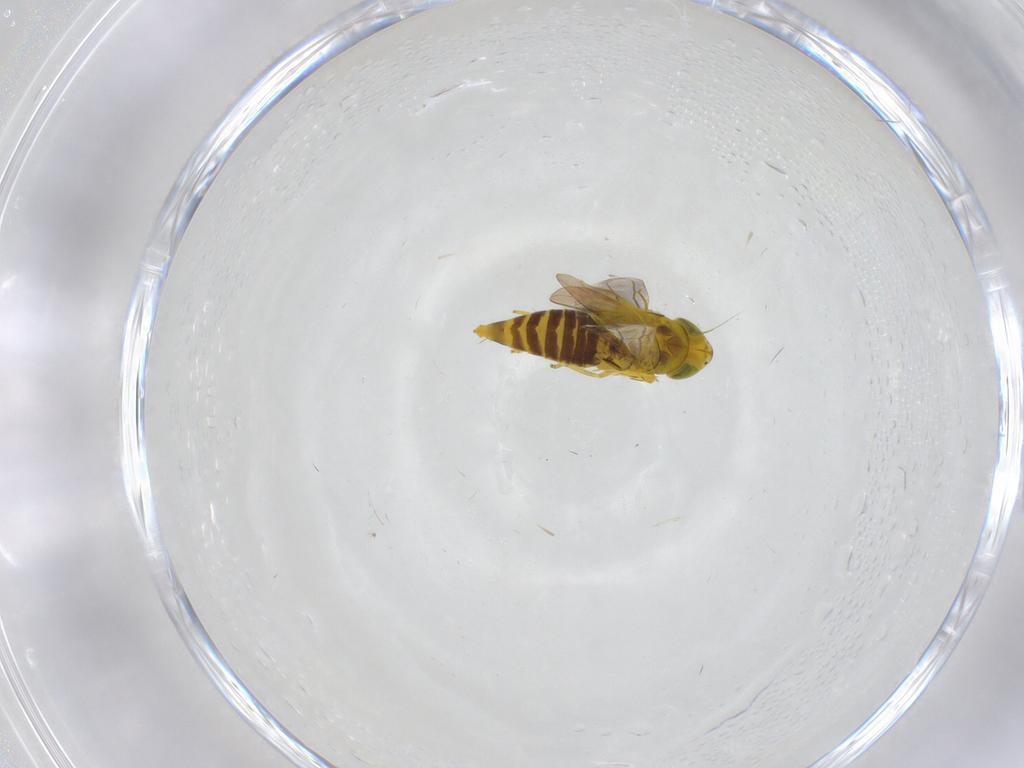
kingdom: Animalia
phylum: Arthropoda
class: Insecta
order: Hemiptera
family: Cicadellidae
